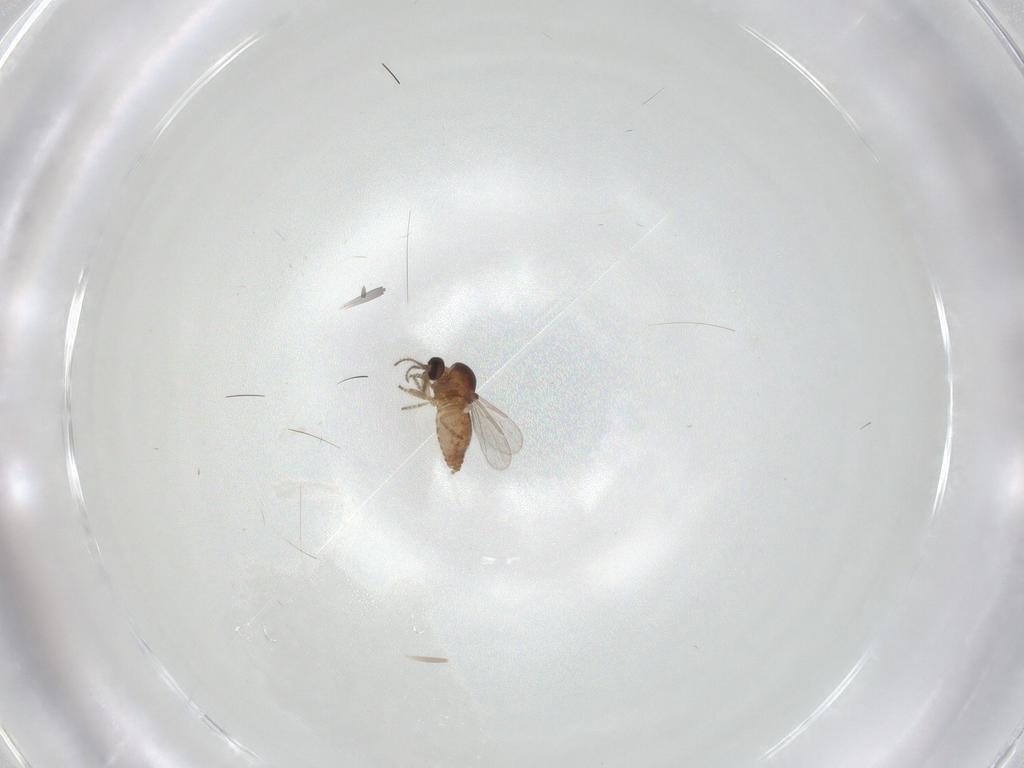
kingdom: Animalia
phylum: Arthropoda
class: Insecta
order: Diptera
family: Ceratopogonidae
